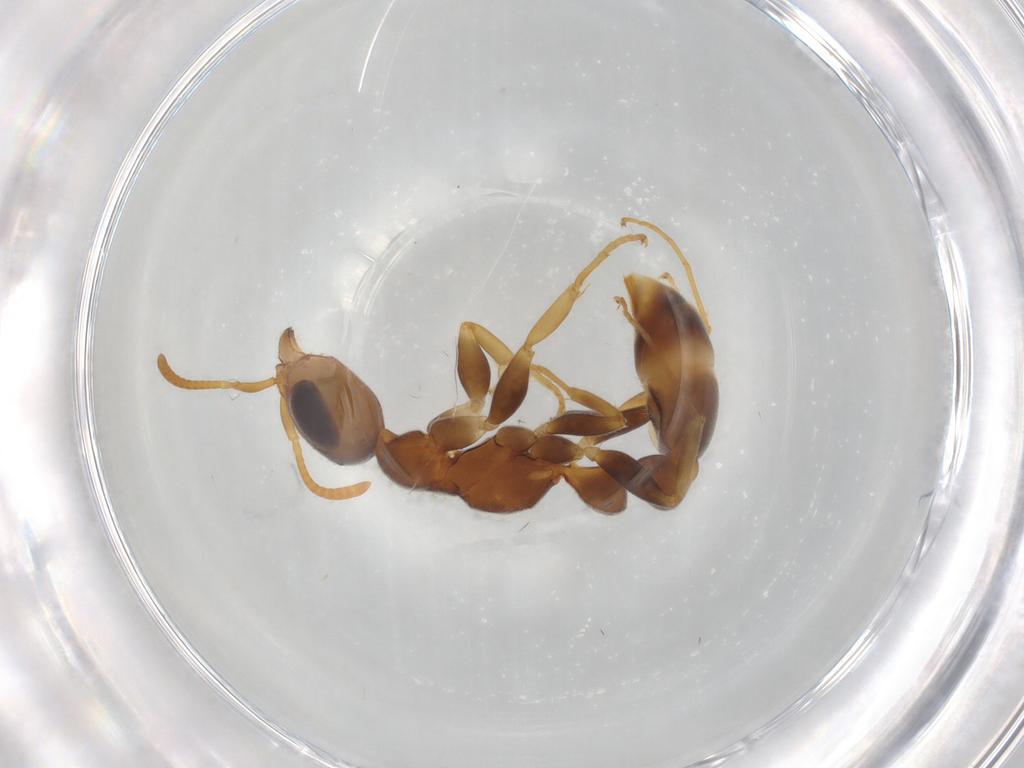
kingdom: Animalia
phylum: Arthropoda
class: Insecta
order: Hymenoptera
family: Formicidae
